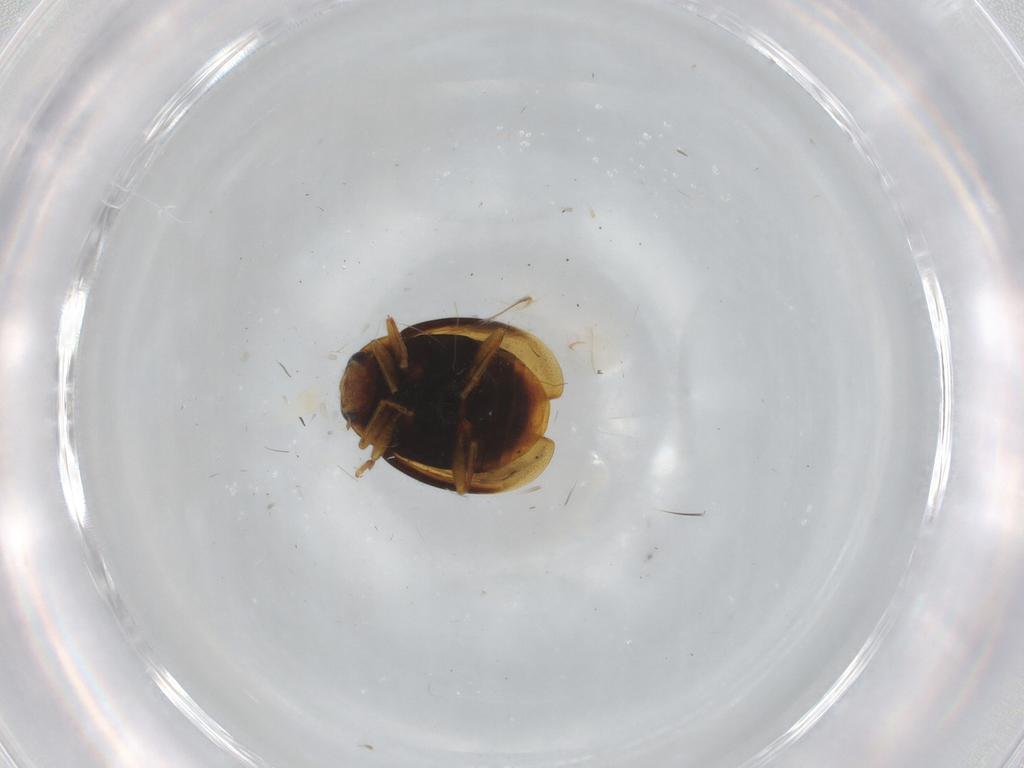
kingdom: Animalia
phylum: Arthropoda
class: Insecta
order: Coleoptera
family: Coccinellidae
